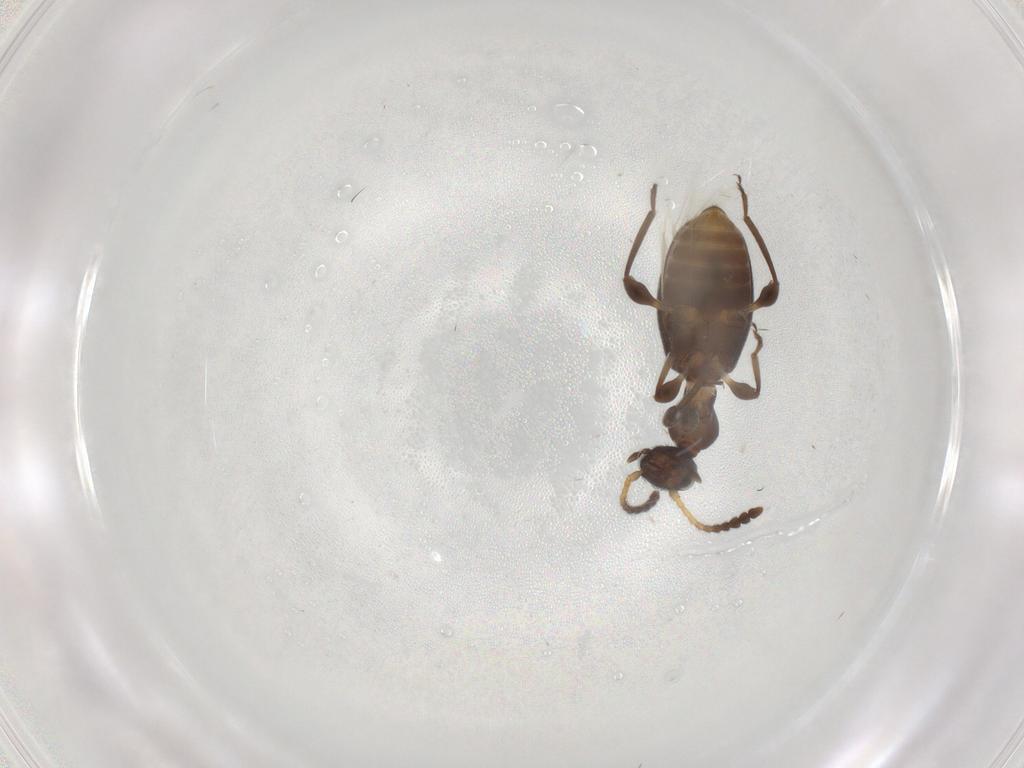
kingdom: Animalia
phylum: Arthropoda
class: Insecta
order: Coleoptera
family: Anthicidae
